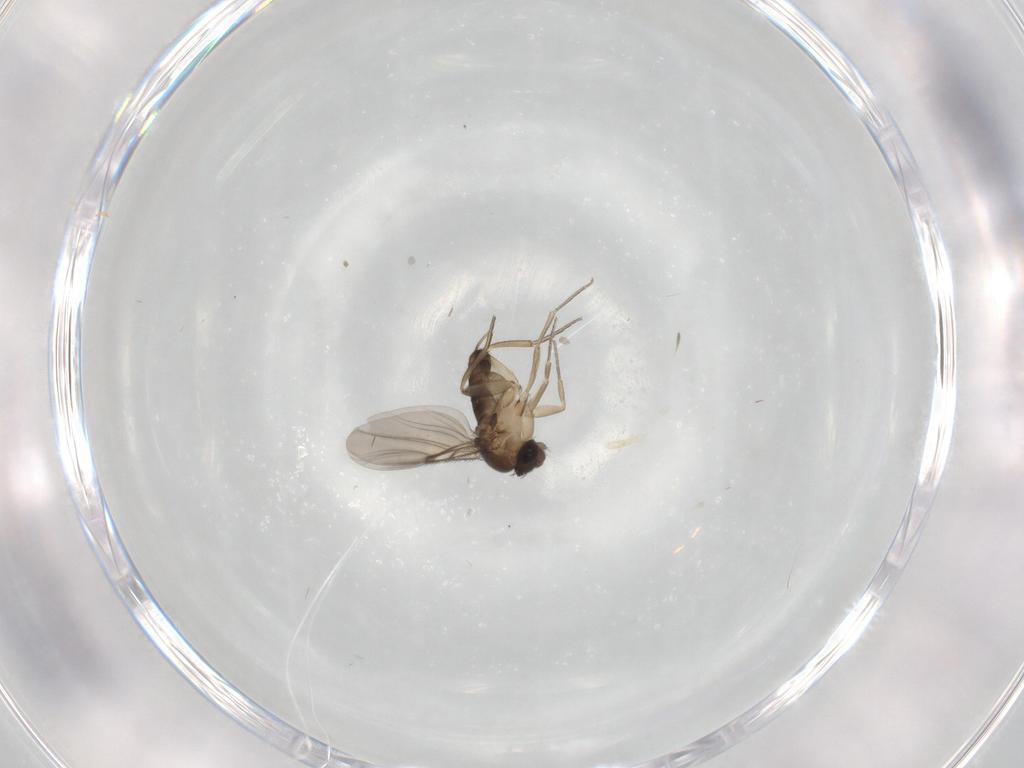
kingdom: Animalia
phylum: Arthropoda
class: Insecta
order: Diptera
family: Phoridae
